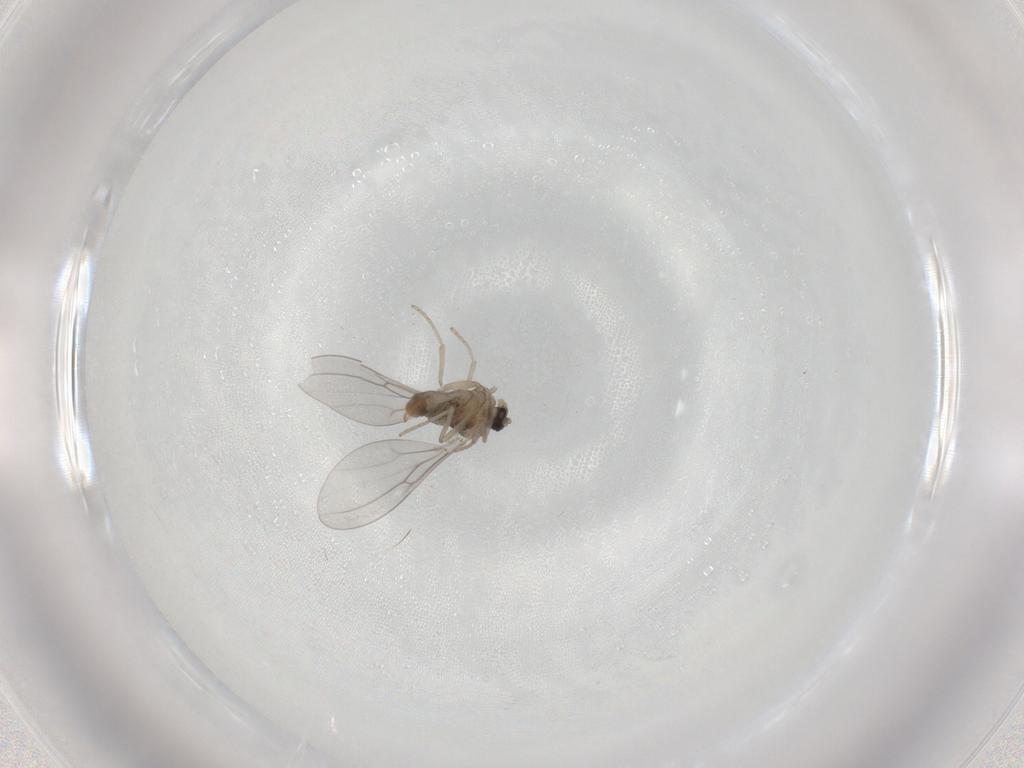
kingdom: Animalia
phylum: Arthropoda
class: Insecta
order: Diptera
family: Cecidomyiidae
